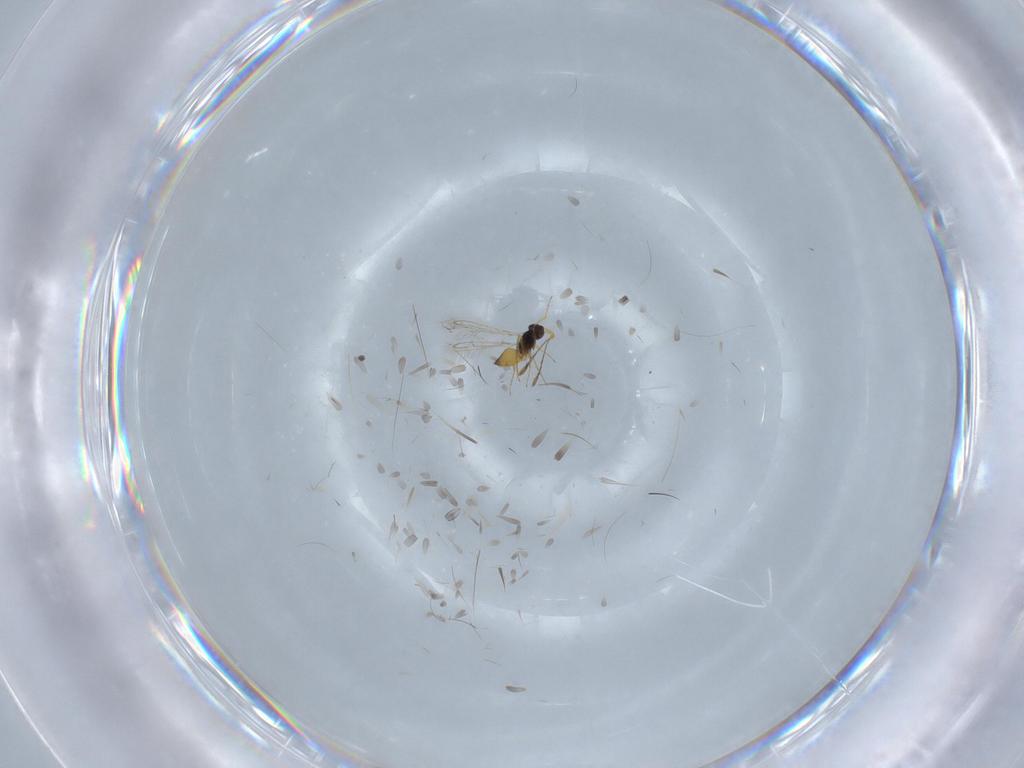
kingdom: Animalia
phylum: Arthropoda
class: Insecta
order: Hymenoptera
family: Mymaridae
